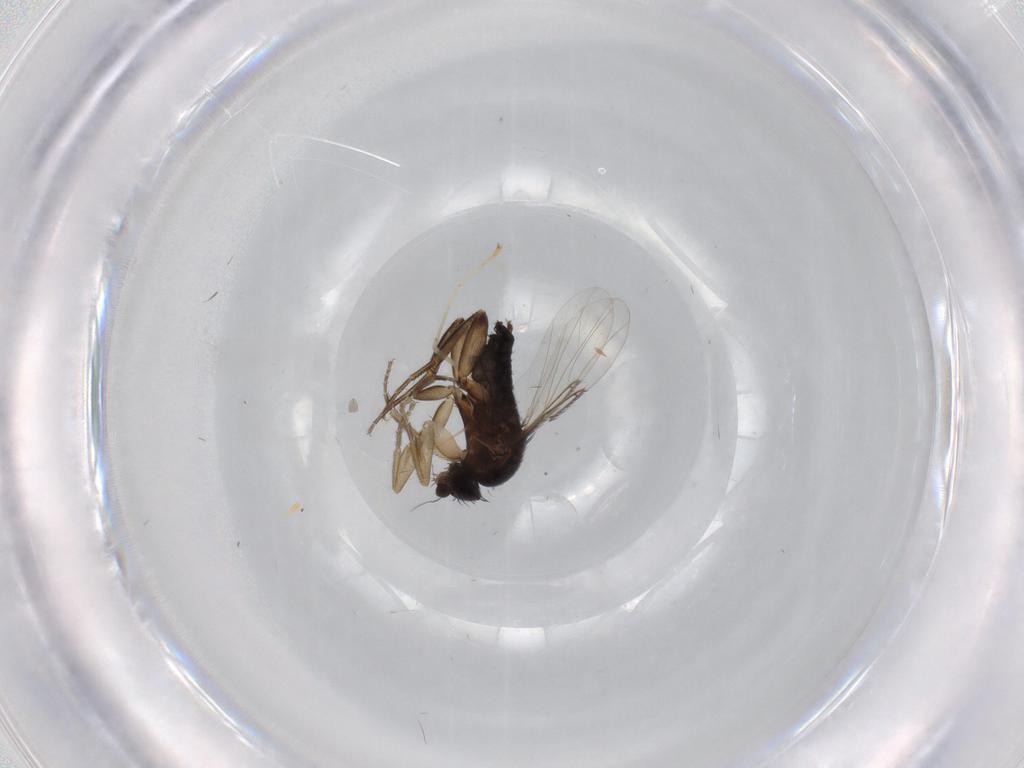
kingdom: Animalia
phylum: Arthropoda
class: Insecta
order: Diptera
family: Phoridae
